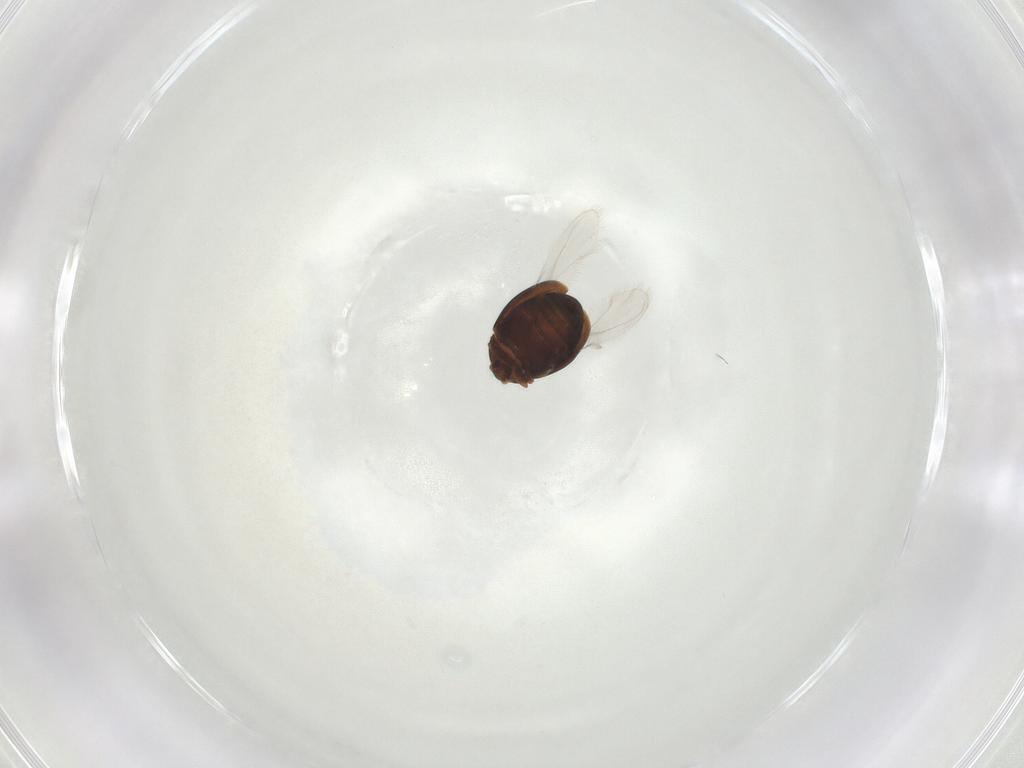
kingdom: Animalia
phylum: Arthropoda
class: Insecta
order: Coleoptera
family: Corylophidae
